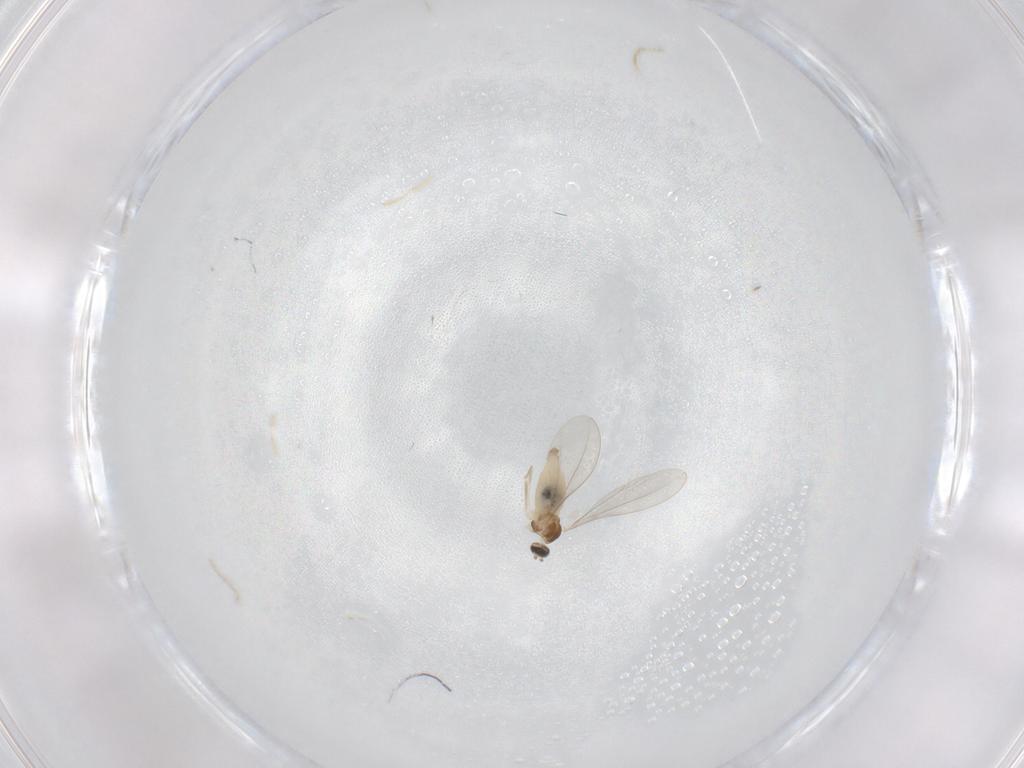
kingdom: Animalia
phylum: Arthropoda
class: Insecta
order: Diptera
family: Cecidomyiidae
